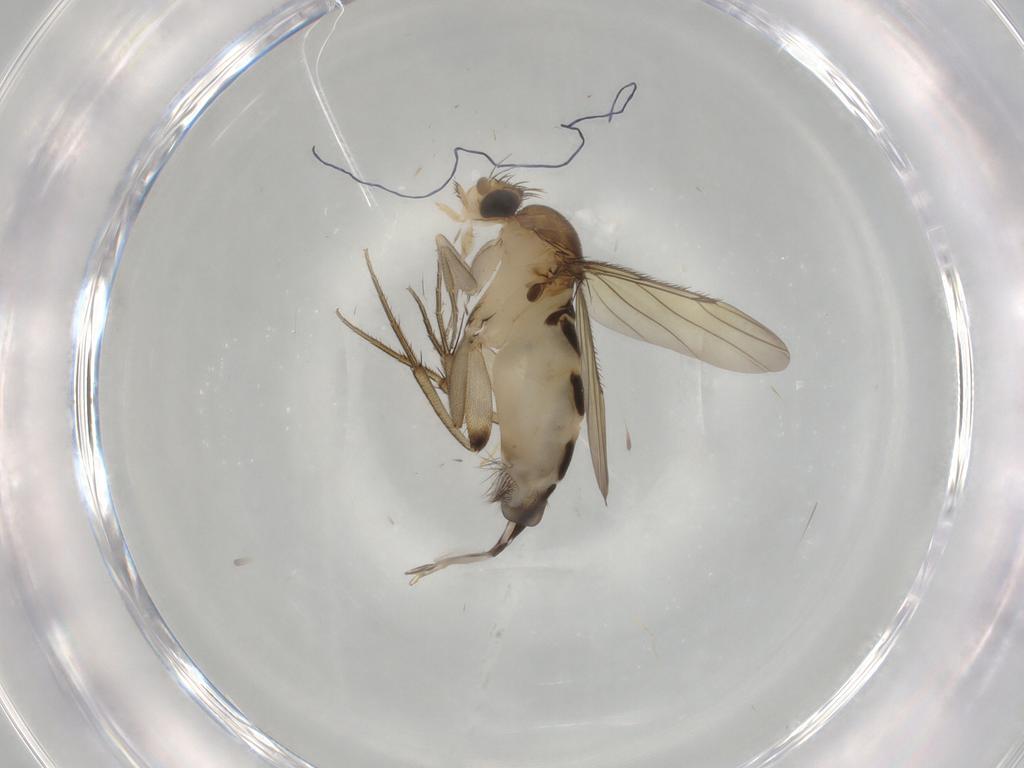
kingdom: Animalia
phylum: Arthropoda
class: Insecta
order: Diptera
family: Phoridae
